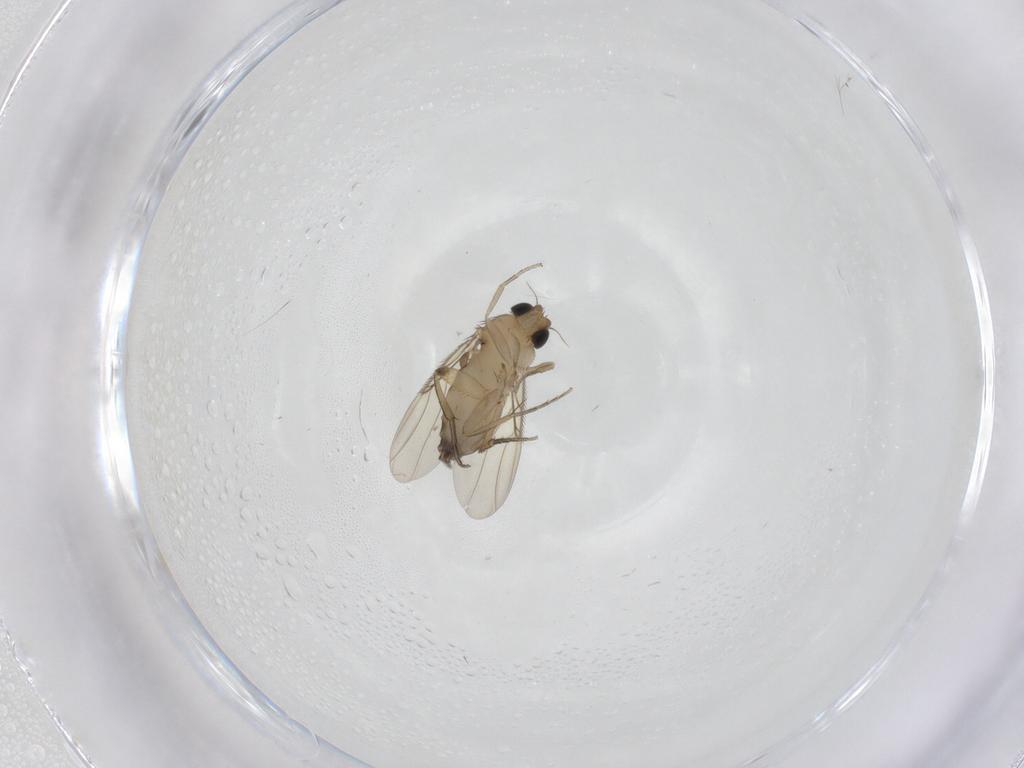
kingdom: Animalia
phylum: Arthropoda
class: Insecta
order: Diptera
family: Phoridae
